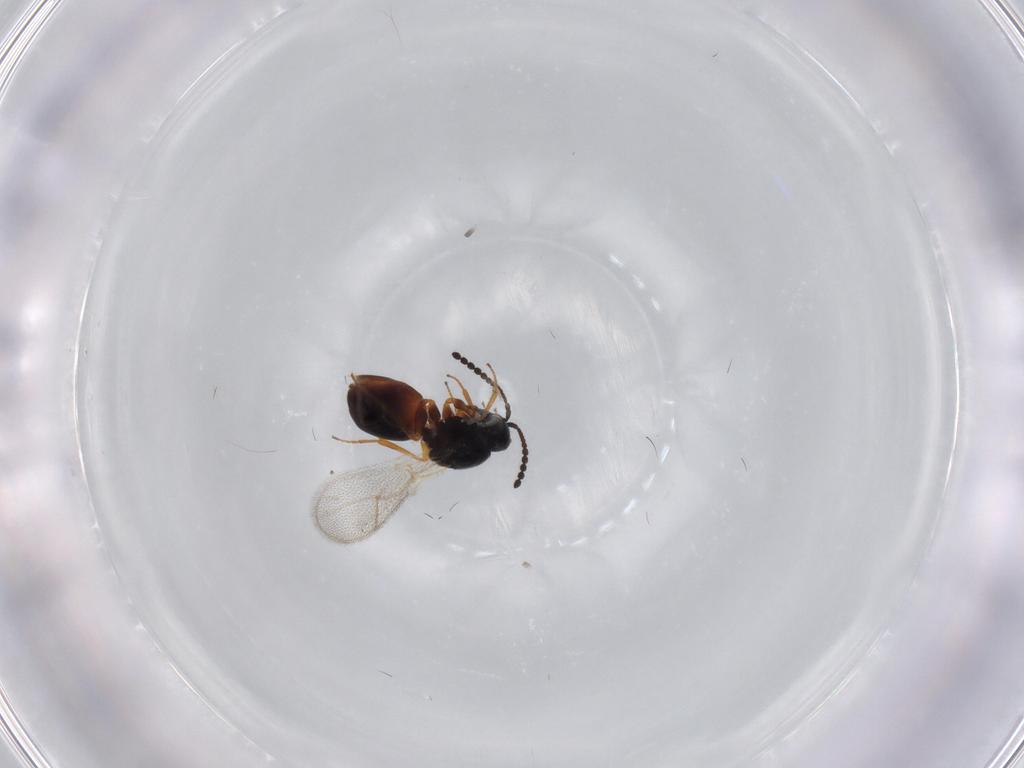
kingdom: Animalia
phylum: Arthropoda
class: Insecta
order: Hymenoptera
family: Figitidae
